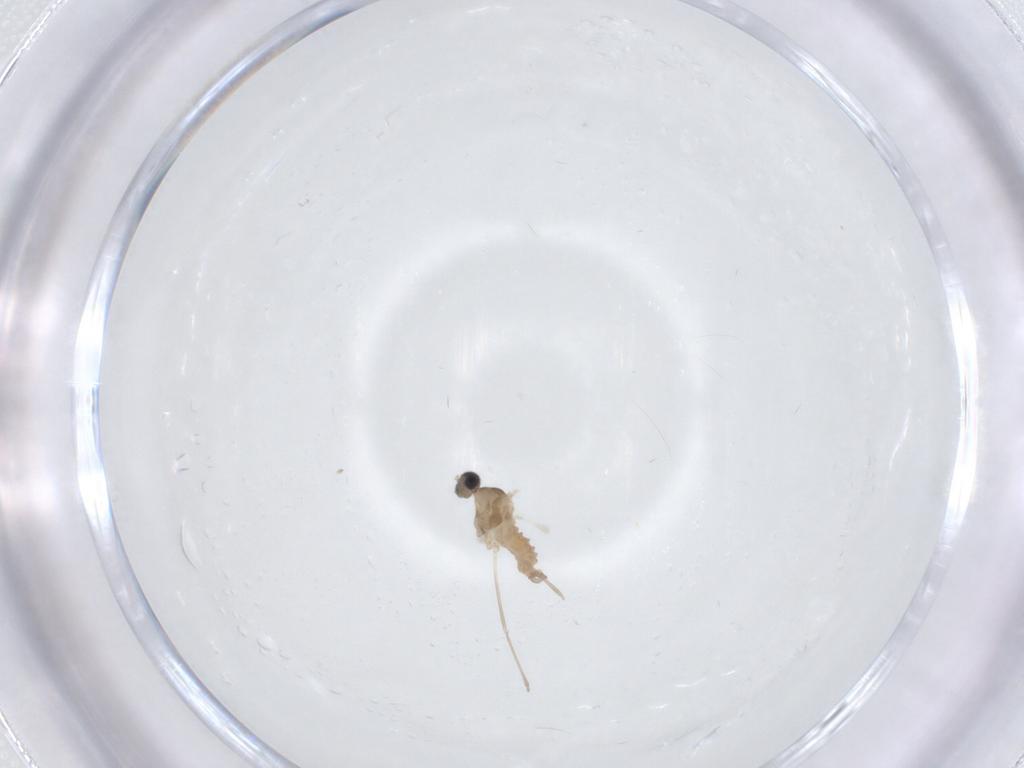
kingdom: Animalia
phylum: Arthropoda
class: Insecta
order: Diptera
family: Cecidomyiidae
